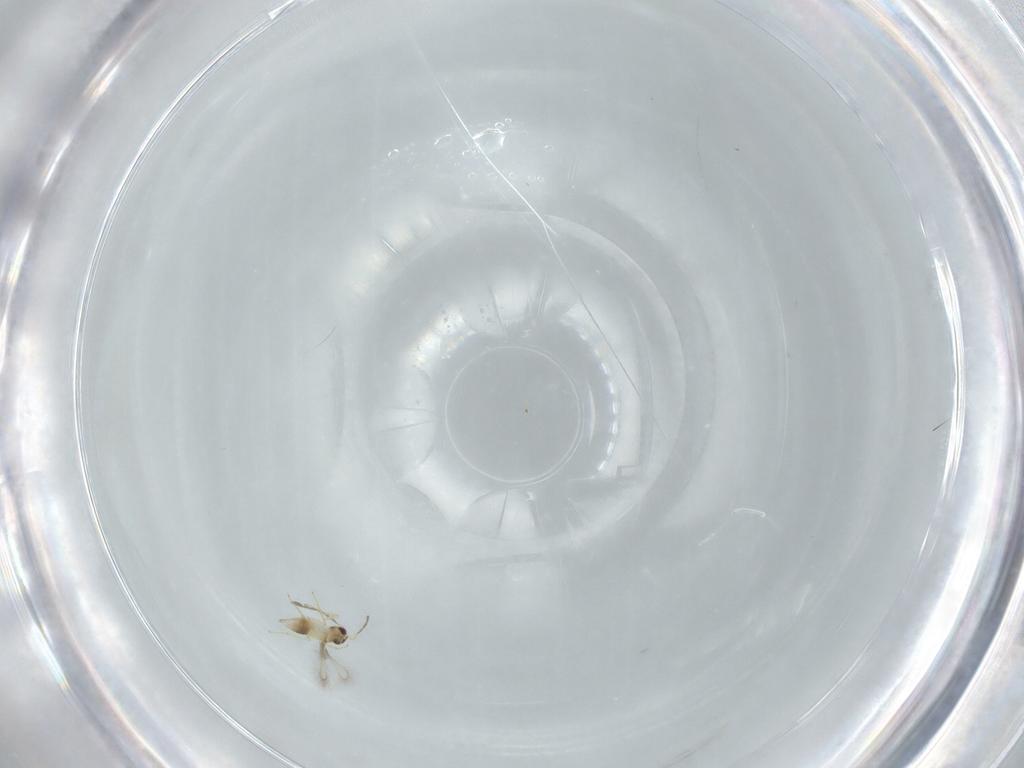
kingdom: Animalia
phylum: Arthropoda
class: Insecta
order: Hymenoptera
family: Mymaridae
